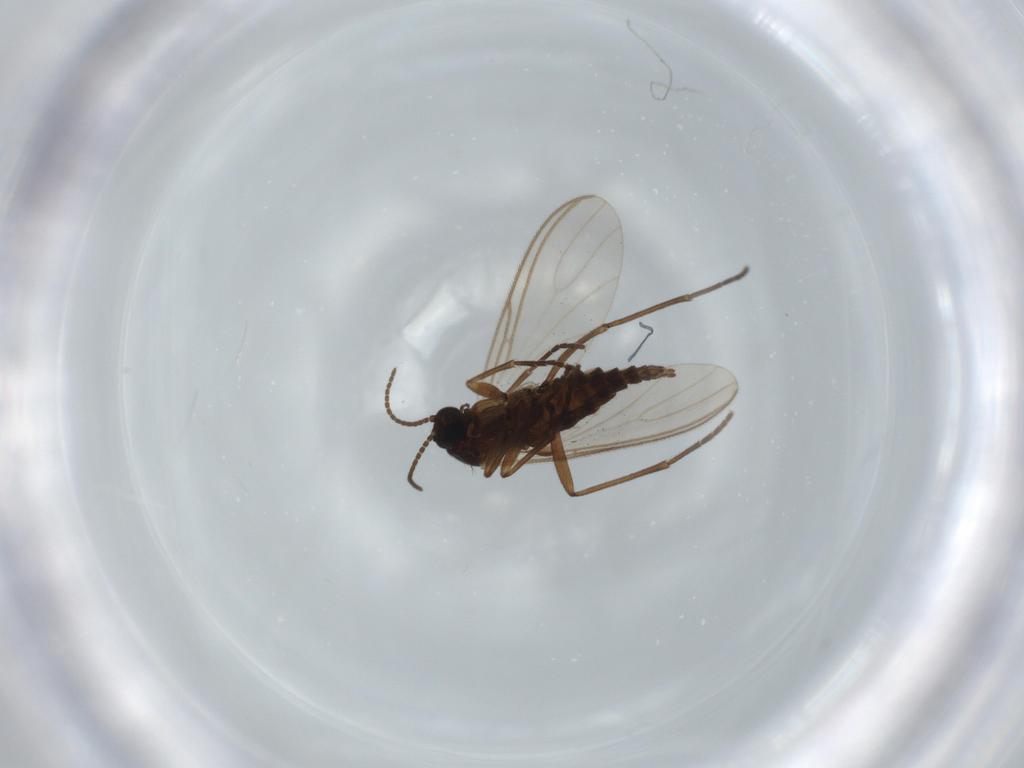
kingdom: Animalia
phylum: Arthropoda
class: Insecta
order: Diptera
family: Sciaridae
